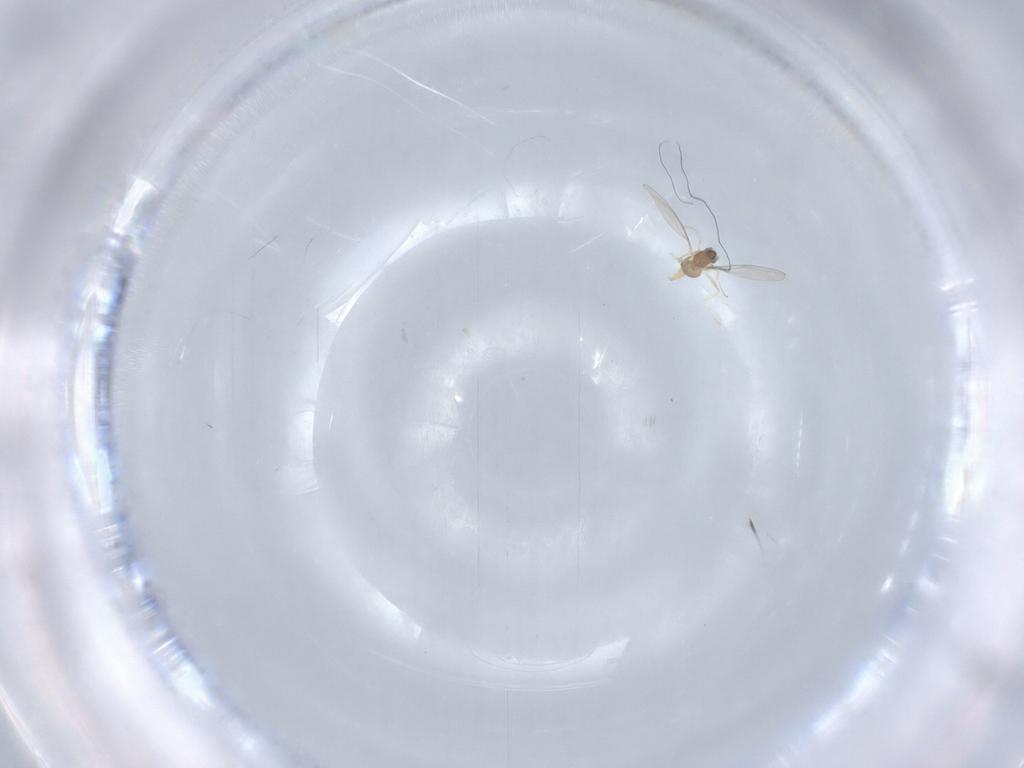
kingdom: Animalia
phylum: Arthropoda
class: Insecta
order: Diptera
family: Cecidomyiidae
